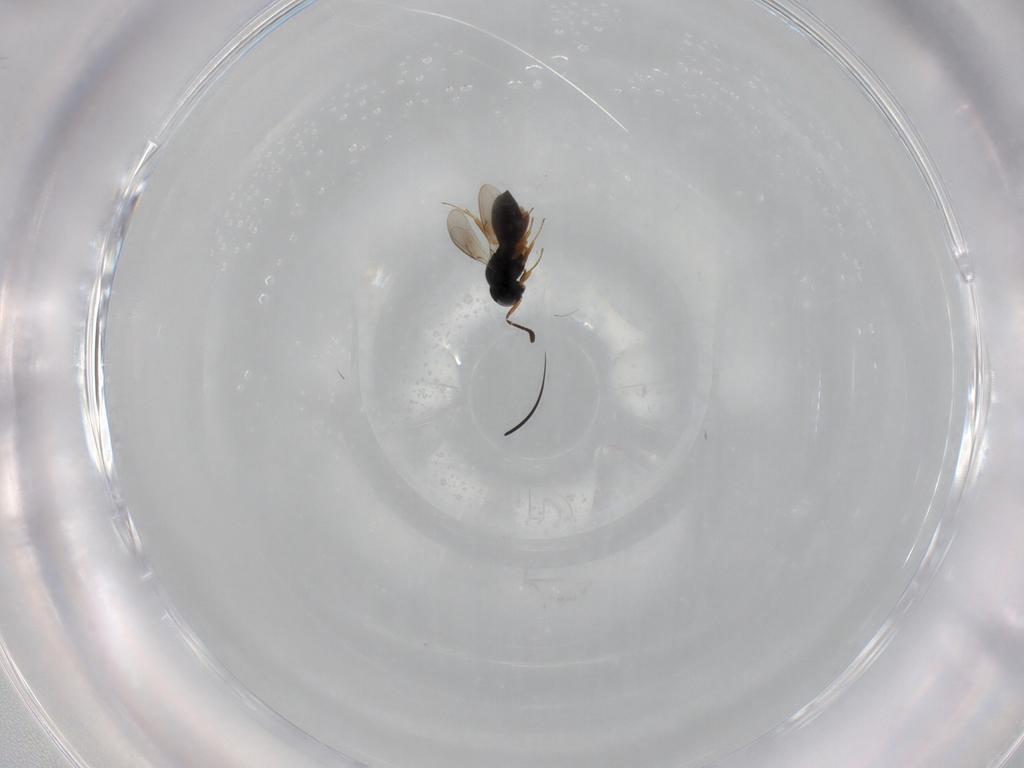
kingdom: Animalia
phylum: Arthropoda
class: Insecta
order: Hymenoptera
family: Scelionidae
